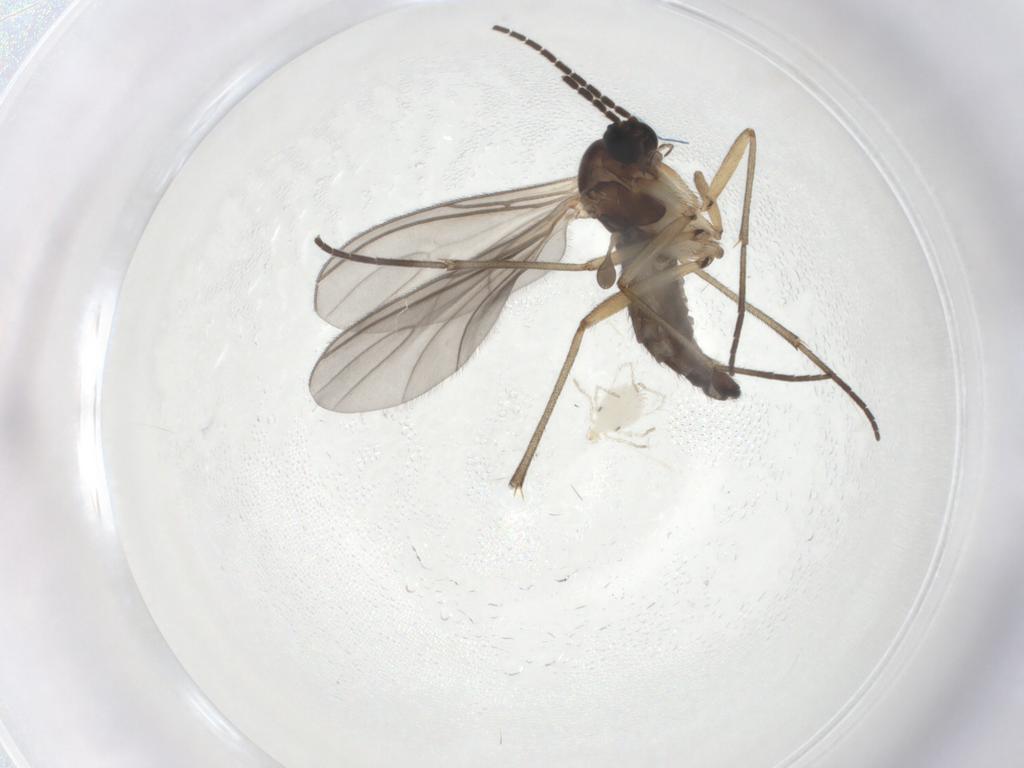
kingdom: Animalia
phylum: Arthropoda
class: Insecta
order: Diptera
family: Sciaridae
